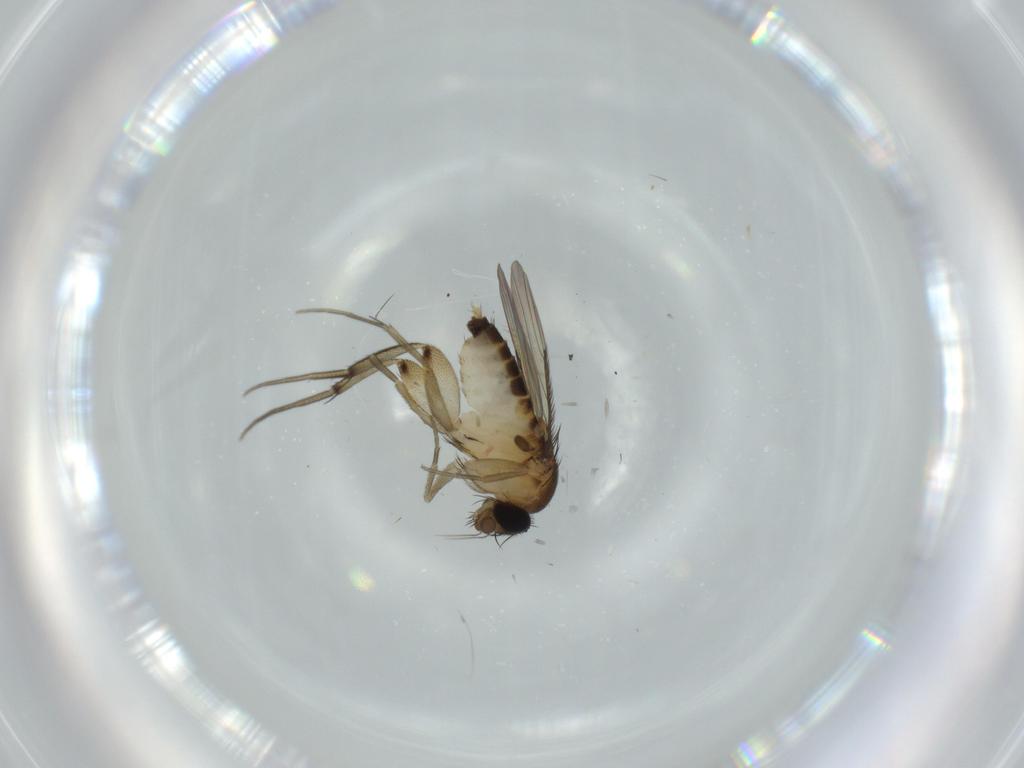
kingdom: Animalia
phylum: Arthropoda
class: Insecta
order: Diptera
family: Phoridae
